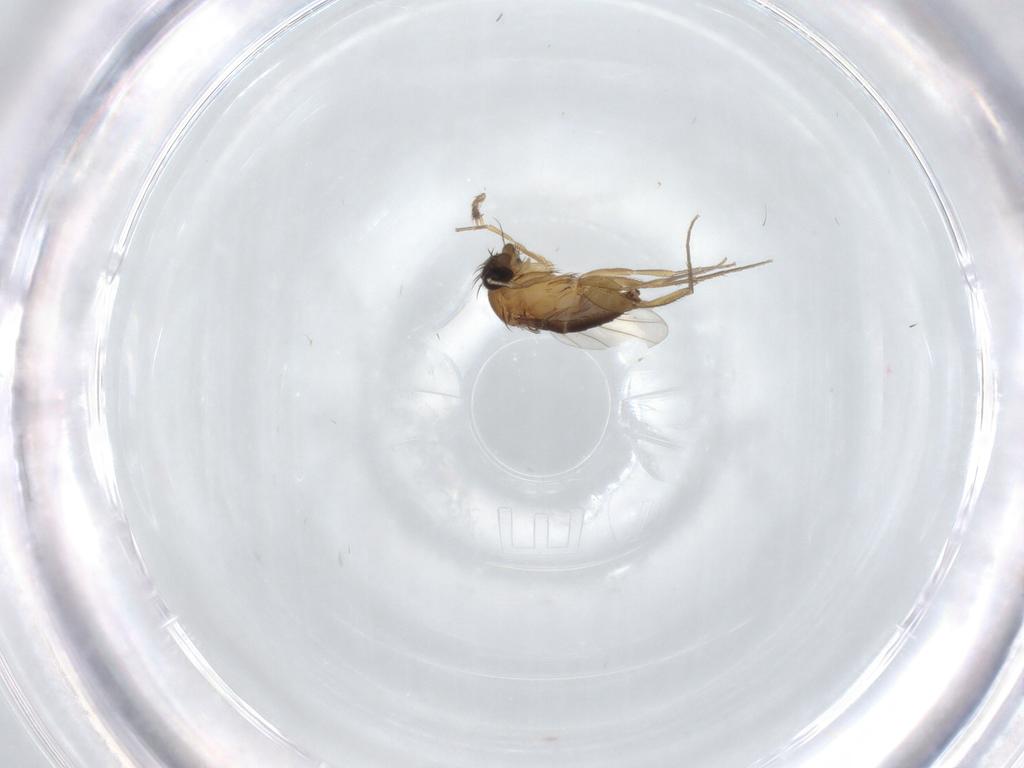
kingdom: Animalia
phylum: Arthropoda
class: Insecta
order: Diptera
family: Phoridae
